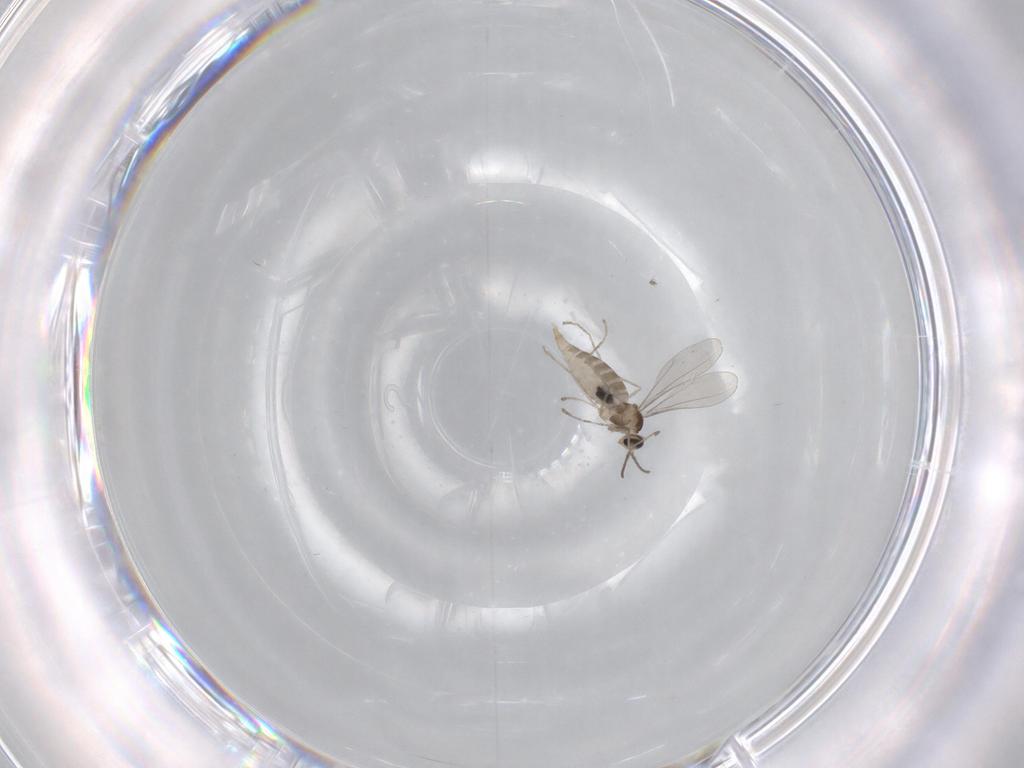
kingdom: Animalia
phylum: Arthropoda
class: Insecta
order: Diptera
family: Cecidomyiidae
